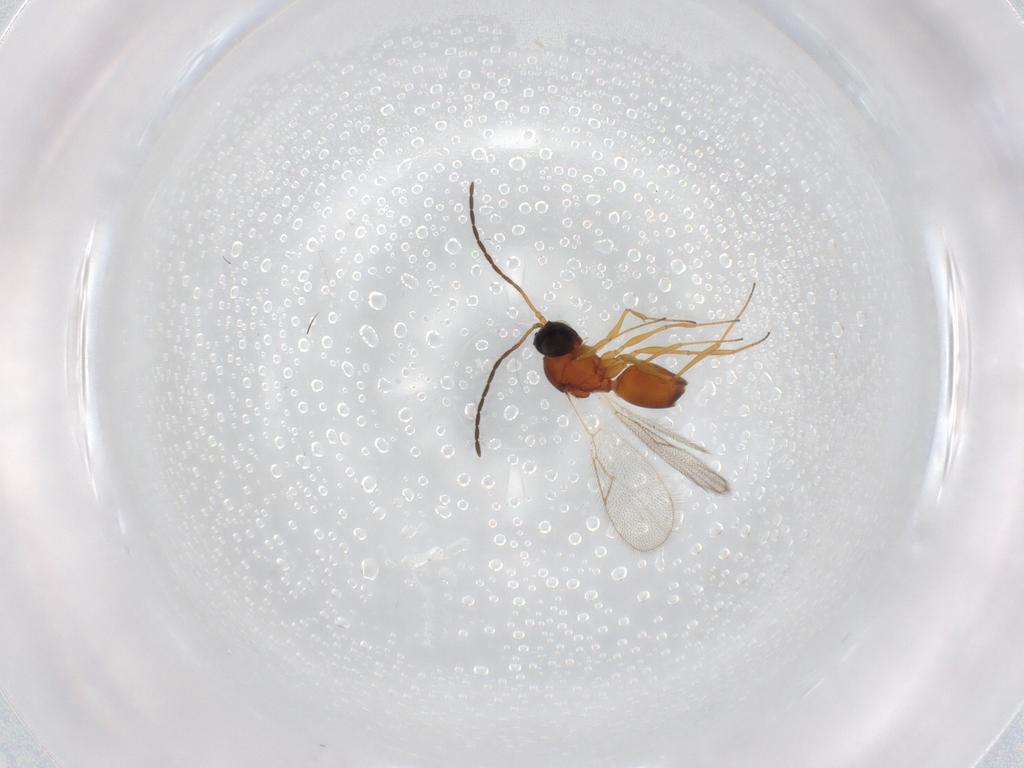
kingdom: Animalia
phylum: Arthropoda
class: Insecta
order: Hymenoptera
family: Figitidae
